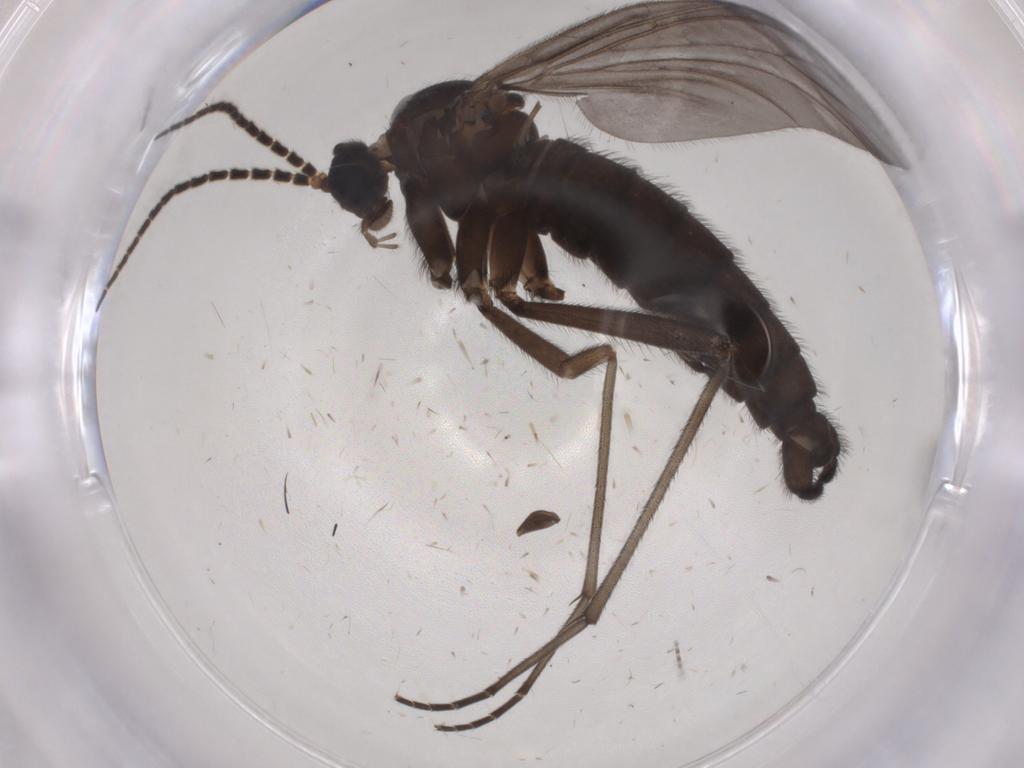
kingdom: Animalia
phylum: Arthropoda
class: Insecta
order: Diptera
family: Sciaridae
